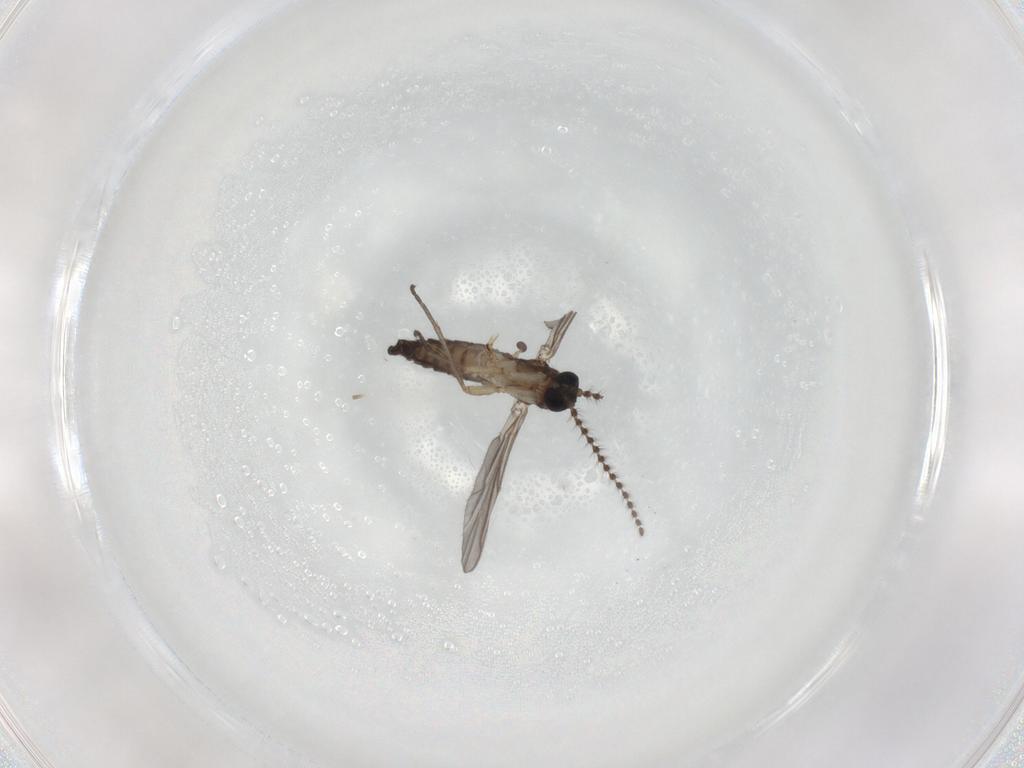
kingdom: Animalia
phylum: Arthropoda
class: Insecta
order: Diptera
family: Sciaridae
